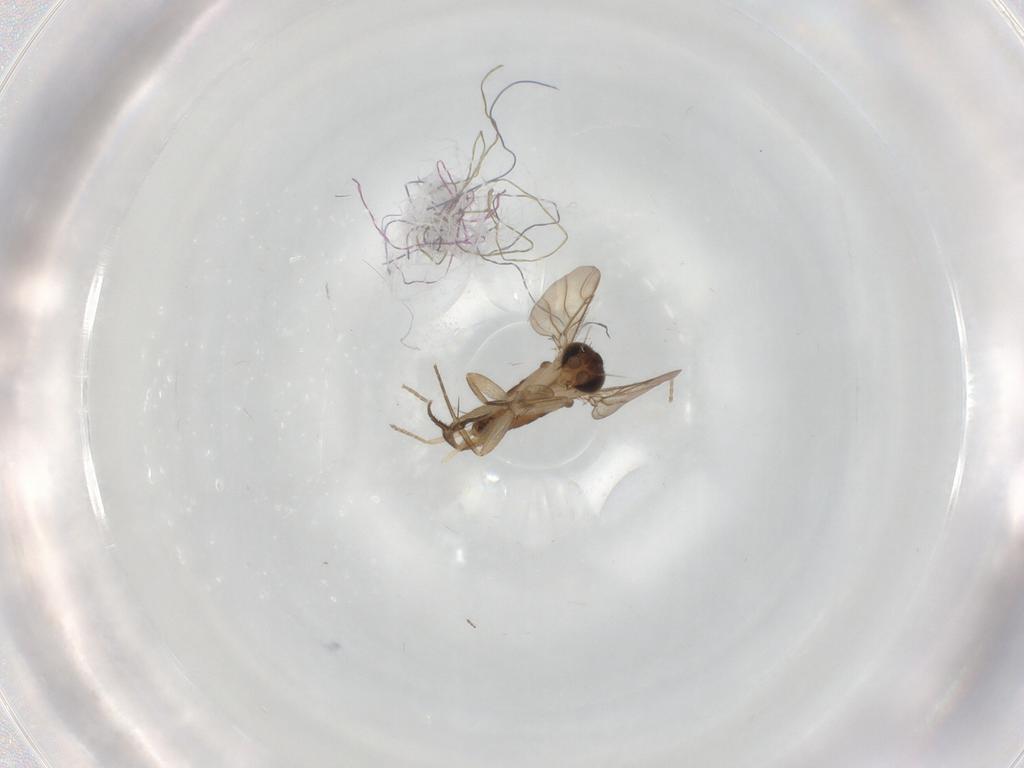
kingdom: Animalia
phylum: Arthropoda
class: Insecta
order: Diptera
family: Phoridae
